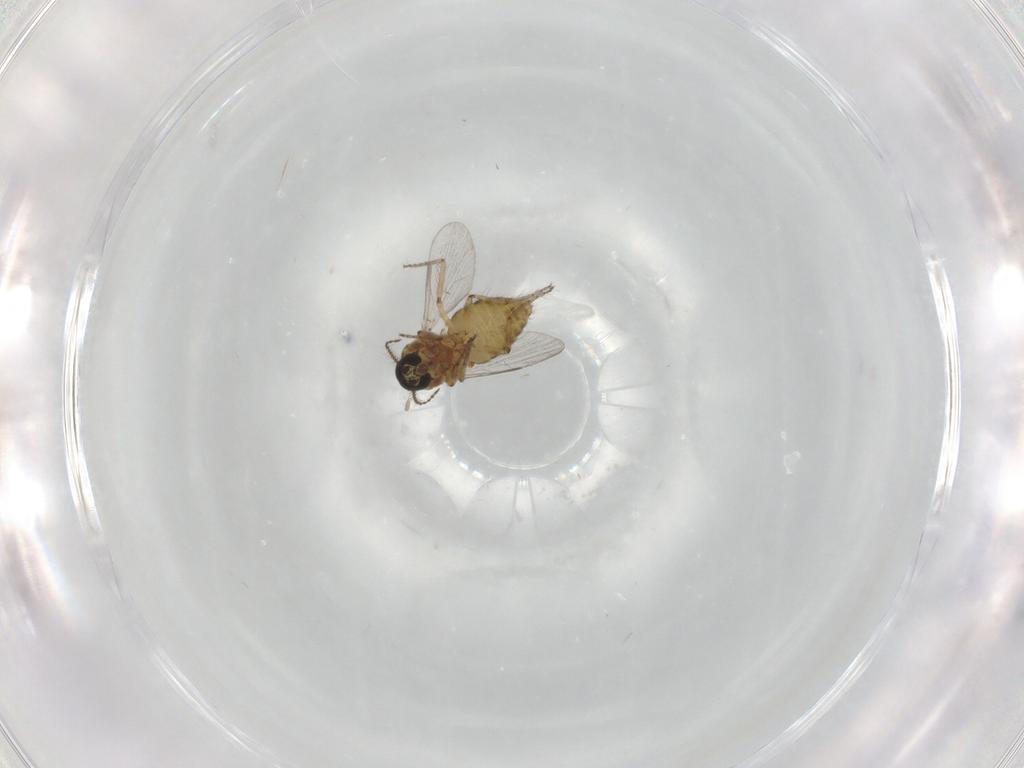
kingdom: Animalia
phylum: Arthropoda
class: Insecta
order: Diptera
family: Ceratopogonidae
